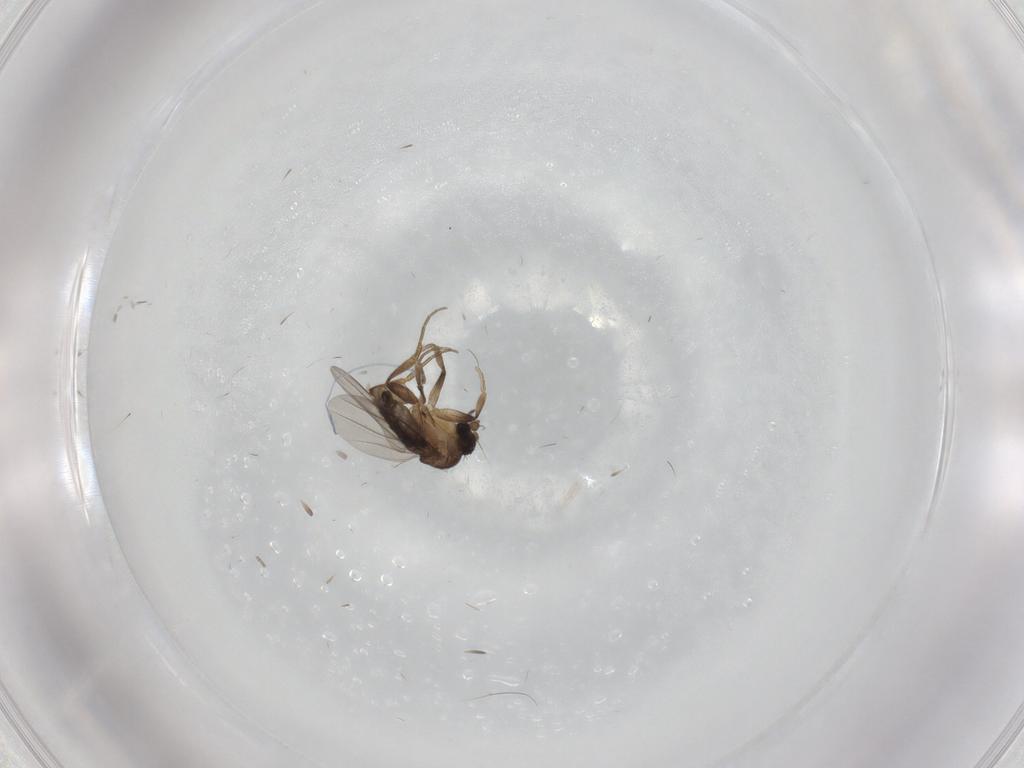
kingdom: Animalia
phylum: Arthropoda
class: Insecta
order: Diptera
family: Phoridae
